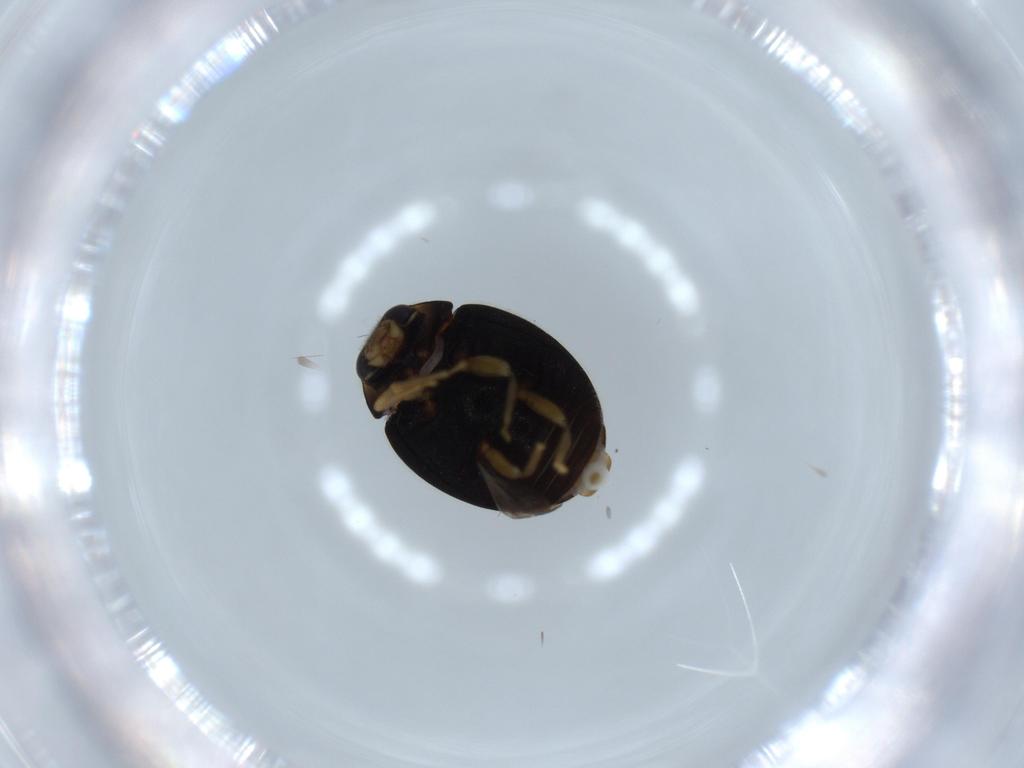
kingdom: Animalia
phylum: Arthropoda
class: Insecta
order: Coleoptera
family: Coccinellidae
